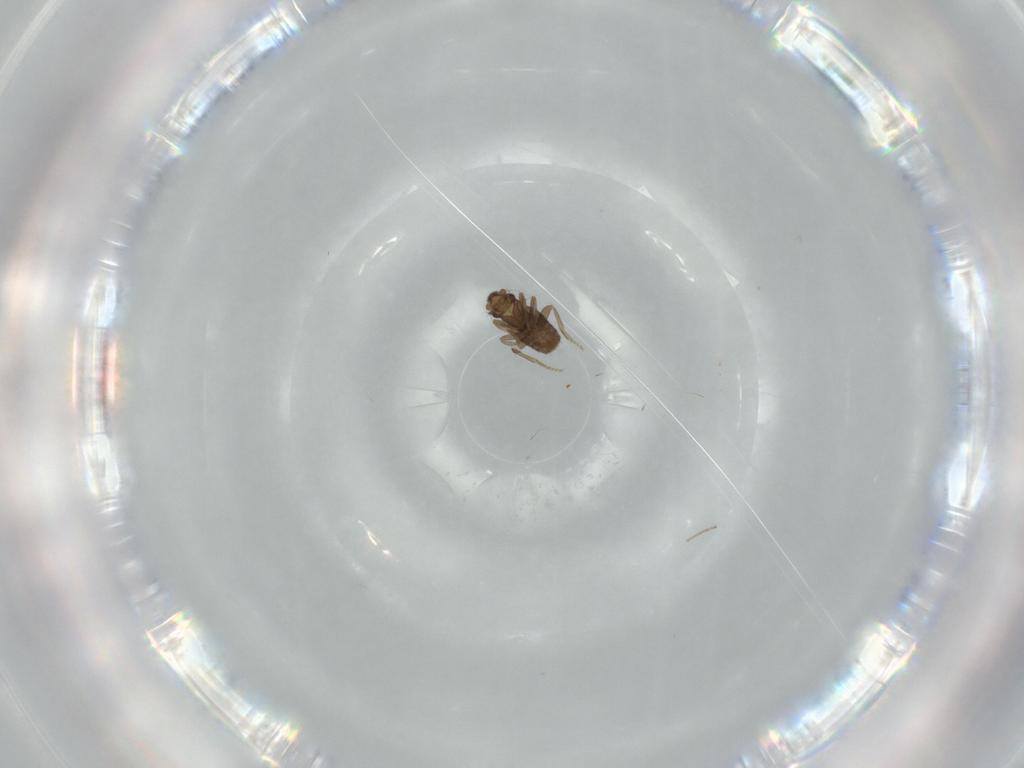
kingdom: Animalia
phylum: Arthropoda
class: Insecta
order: Diptera
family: Phoridae
